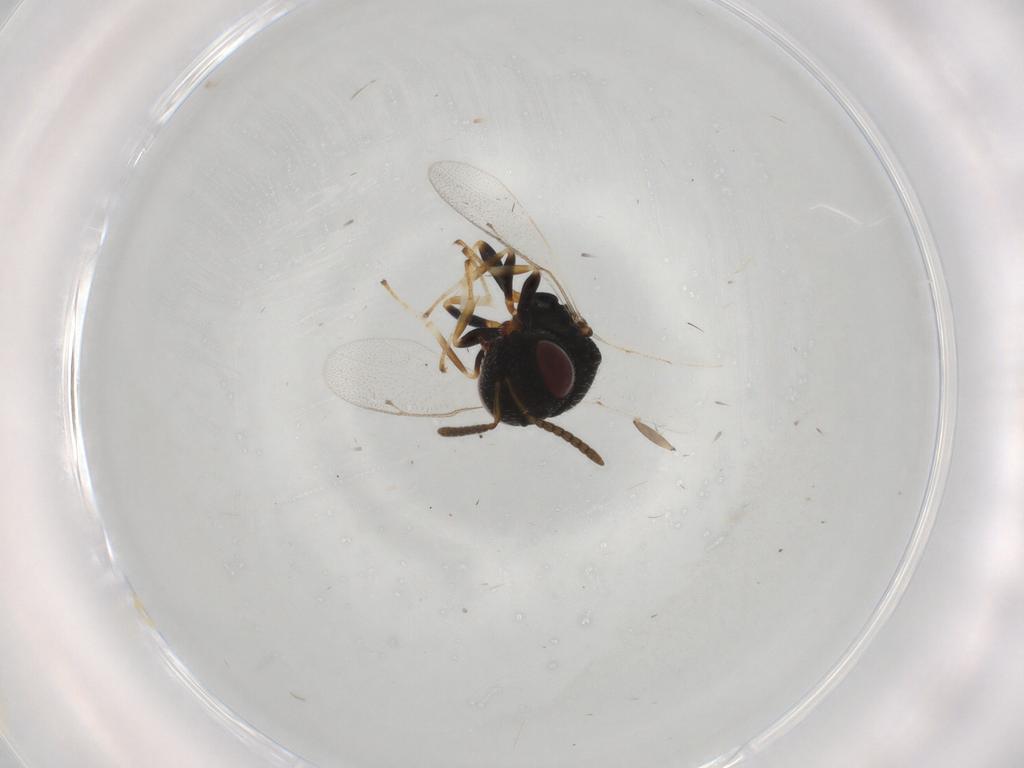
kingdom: Animalia
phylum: Arthropoda
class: Insecta
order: Hymenoptera
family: Pteromalidae
